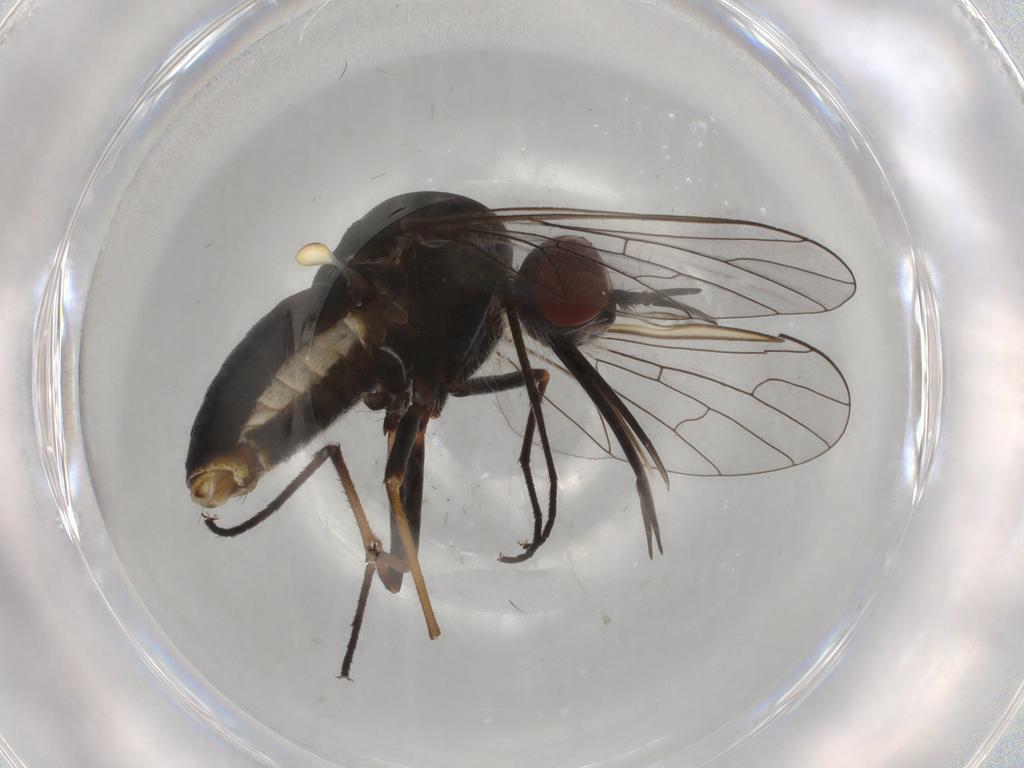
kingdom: Animalia
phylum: Arthropoda
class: Insecta
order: Diptera
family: Bombyliidae
